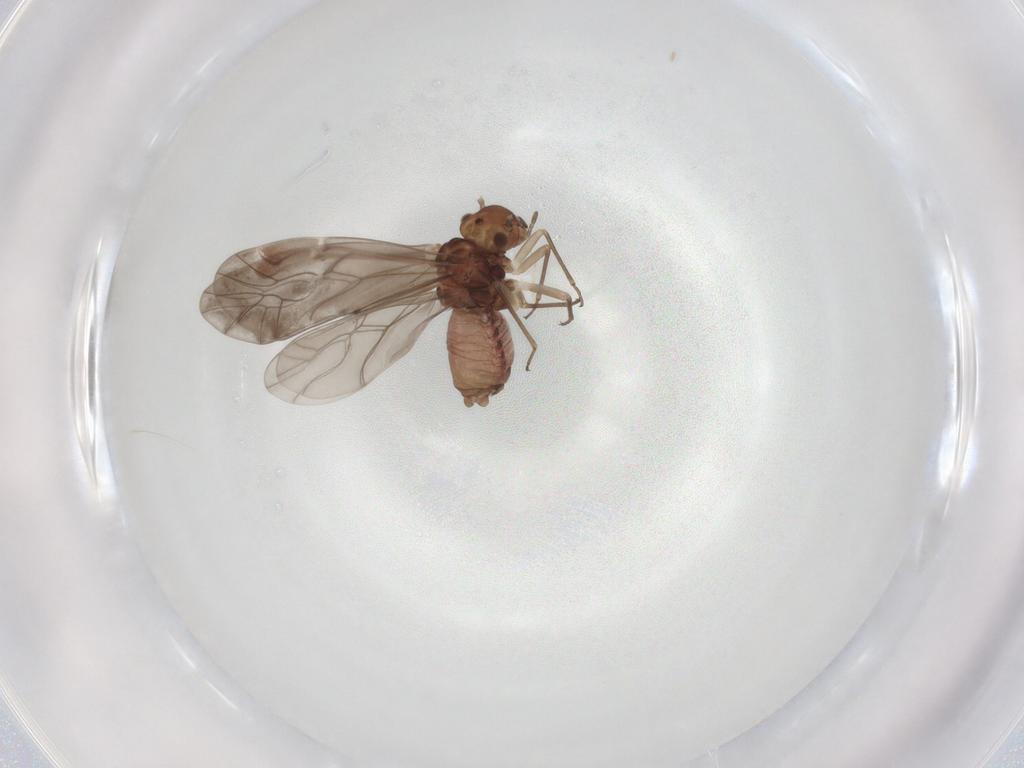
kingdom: Animalia
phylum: Arthropoda
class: Insecta
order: Psocodea
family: Peripsocidae
